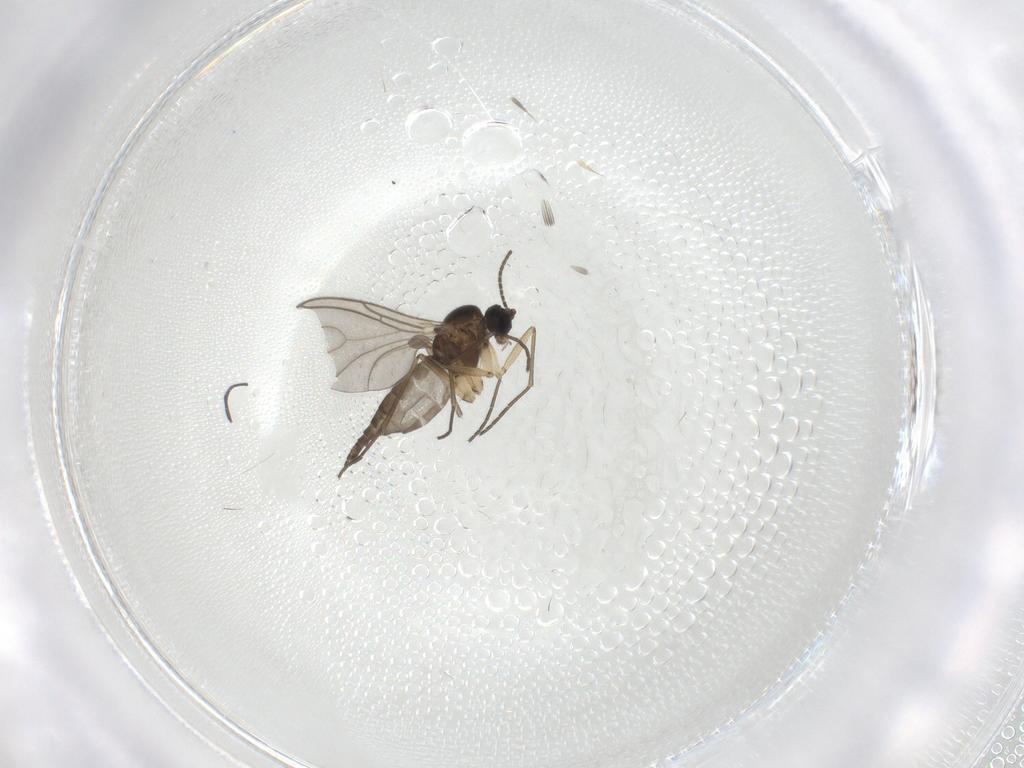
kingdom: Animalia
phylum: Arthropoda
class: Insecta
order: Diptera
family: Sciaridae
